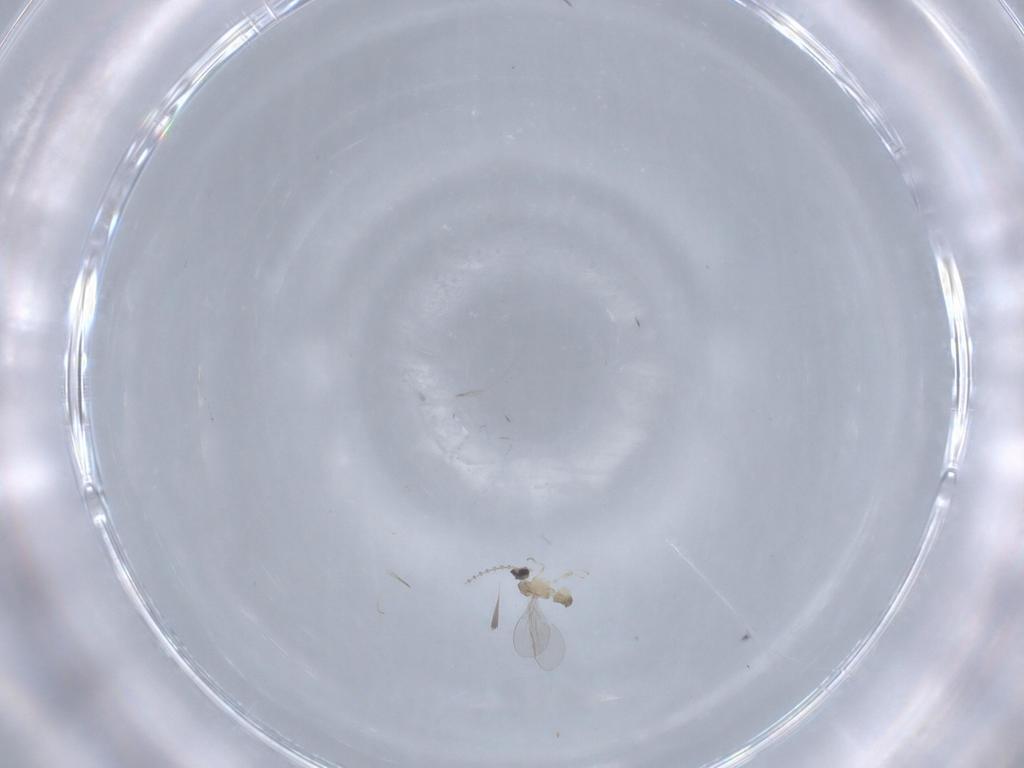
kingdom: Animalia
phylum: Arthropoda
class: Insecta
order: Diptera
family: Cecidomyiidae
